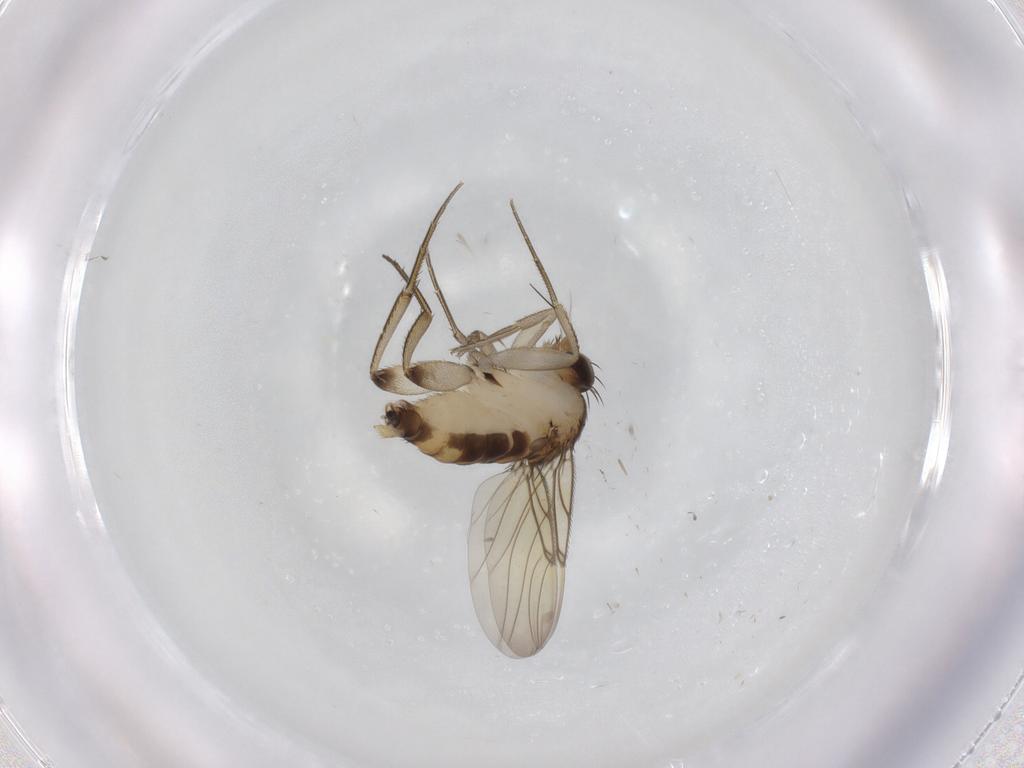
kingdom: Animalia
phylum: Arthropoda
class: Insecta
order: Diptera
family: Phoridae
